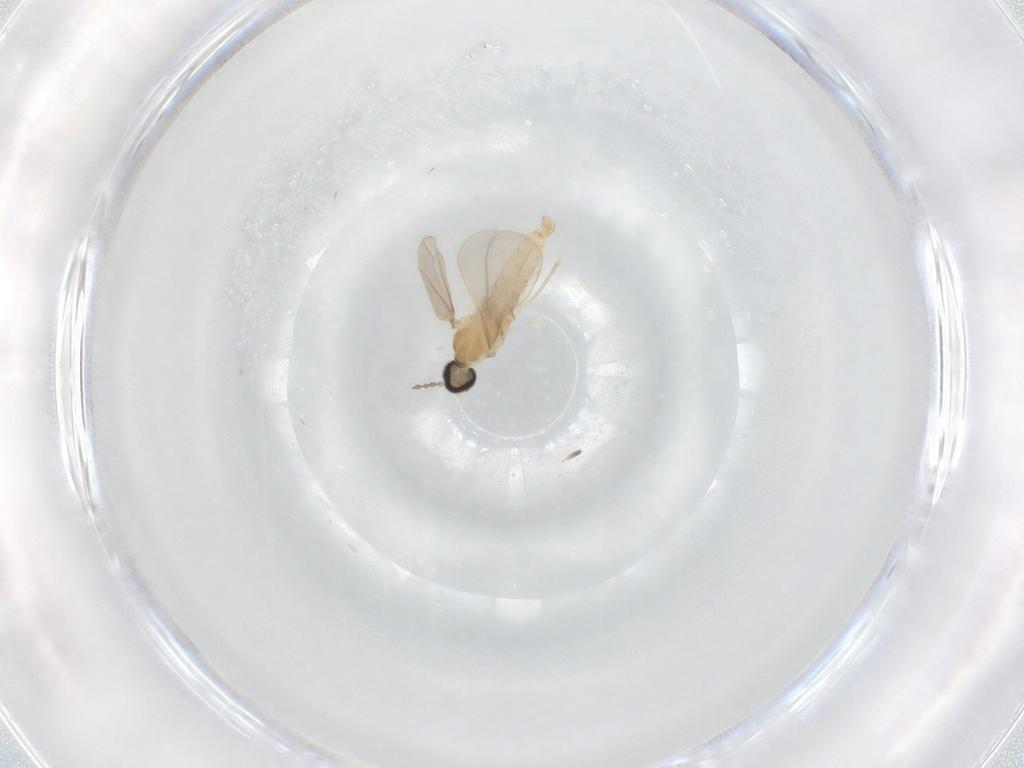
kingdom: Animalia
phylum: Arthropoda
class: Insecta
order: Diptera
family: Cecidomyiidae
